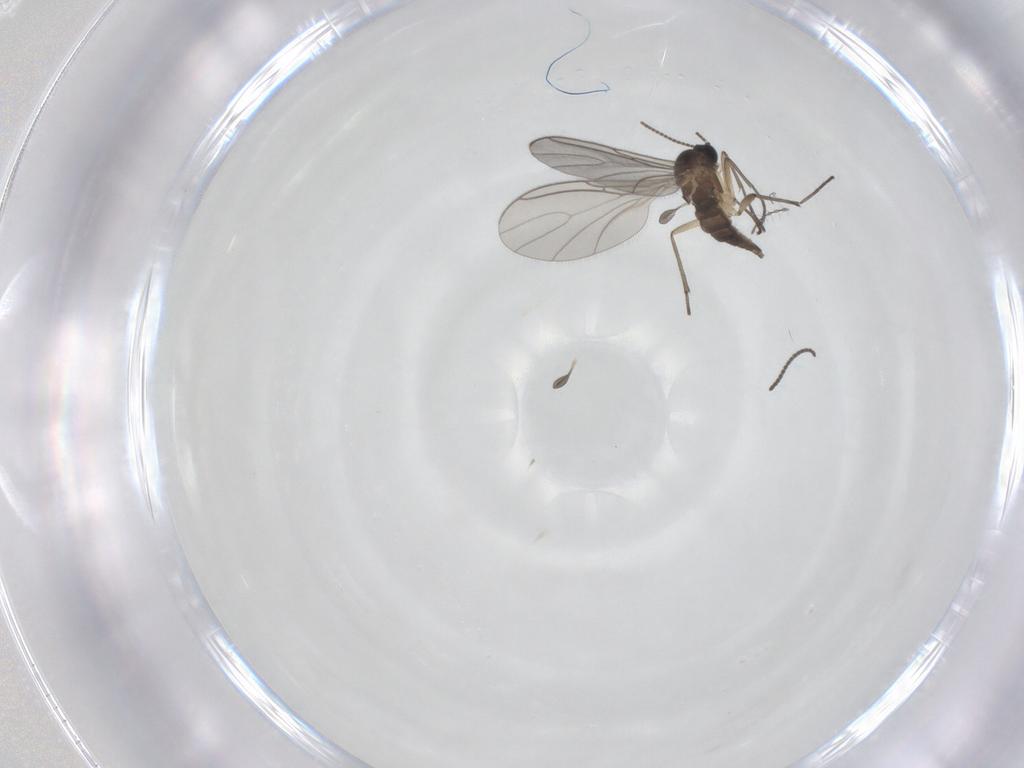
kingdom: Animalia
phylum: Arthropoda
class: Insecta
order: Diptera
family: Sciaridae
